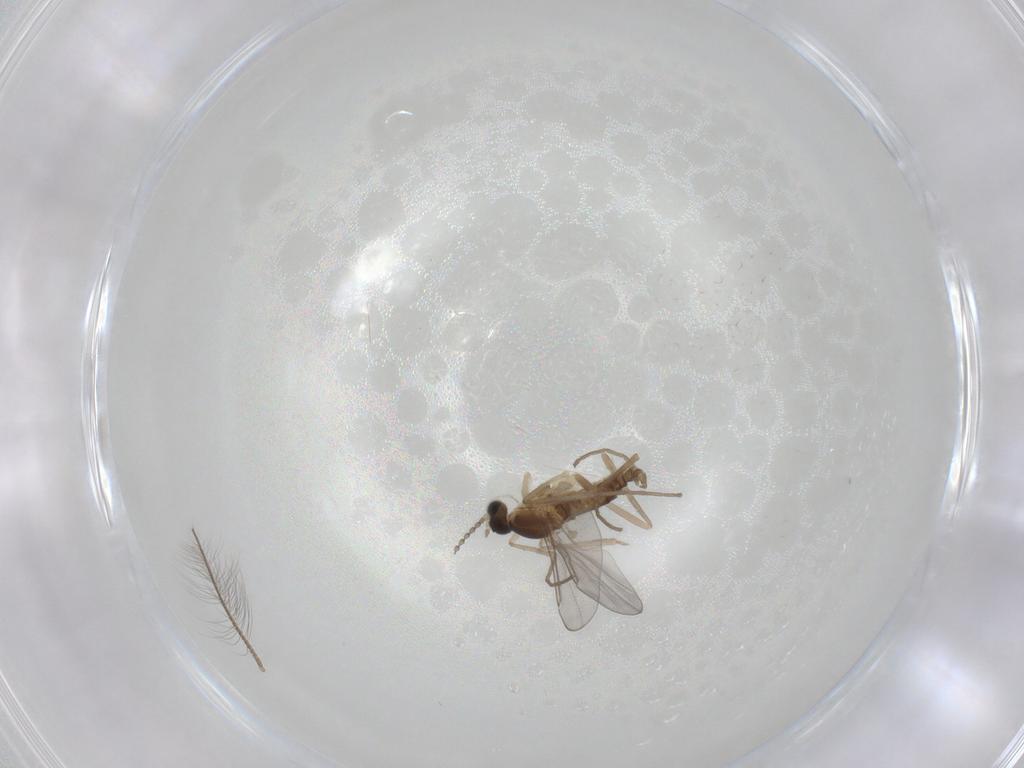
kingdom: Animalia
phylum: Arthropoda
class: Insecta
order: Diptera
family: Cecidomyiidae
